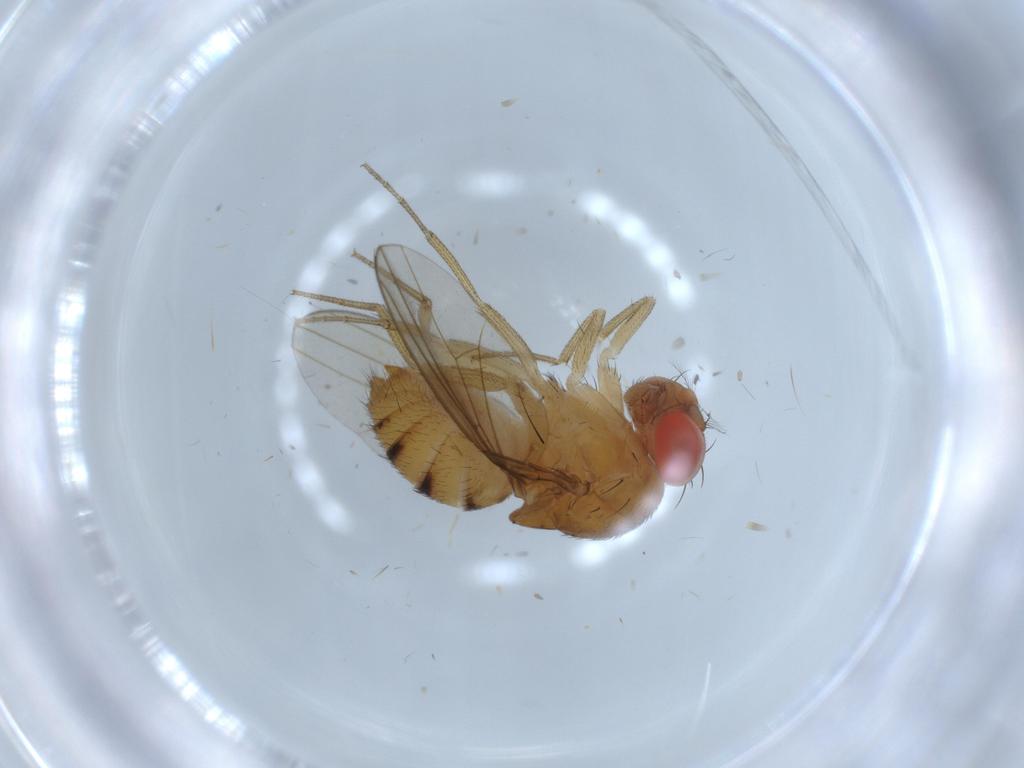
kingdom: Animalia
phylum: Arthropoda
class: Insecta
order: Diptera
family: Drosophilidae
